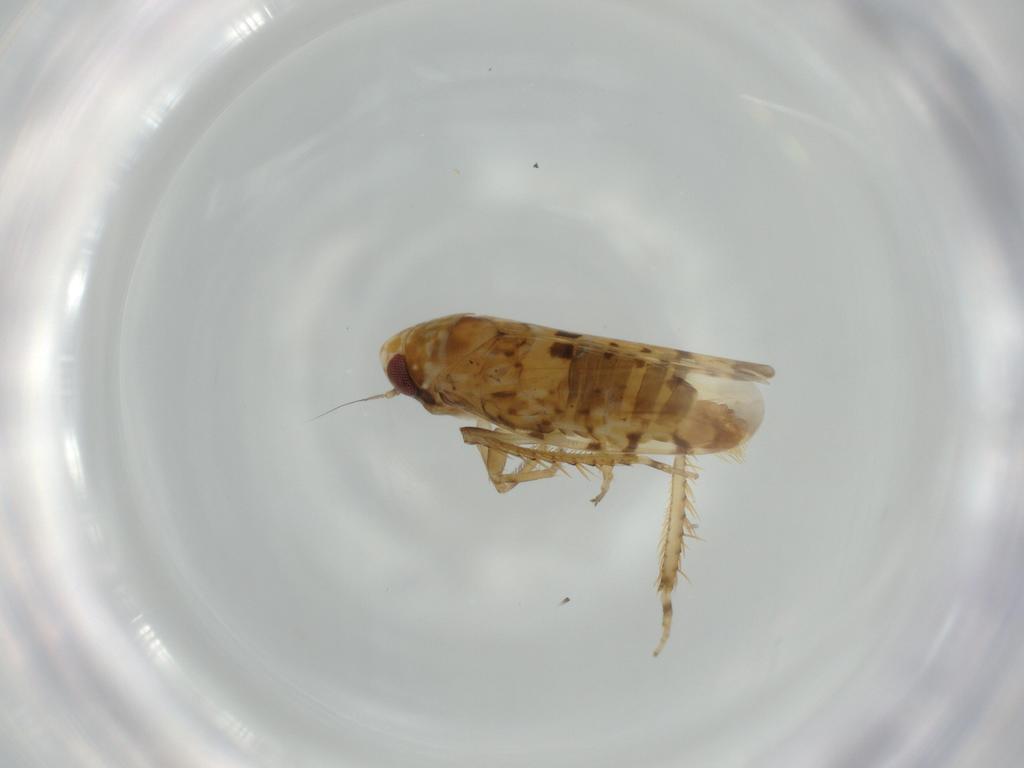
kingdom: Animalia
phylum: Arthropoda
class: Insecta
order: Hemiptera
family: Cicadellidae
